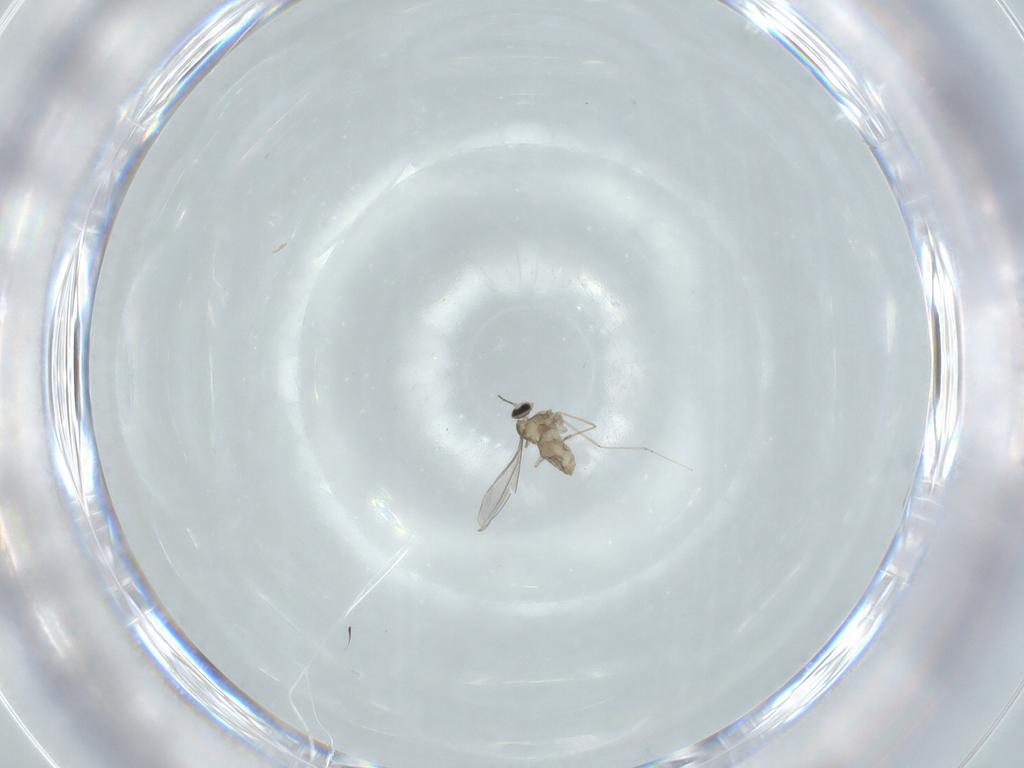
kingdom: Animalia
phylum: Arthropoda
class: Insecta
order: Diptera
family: Cecidomyiidae
